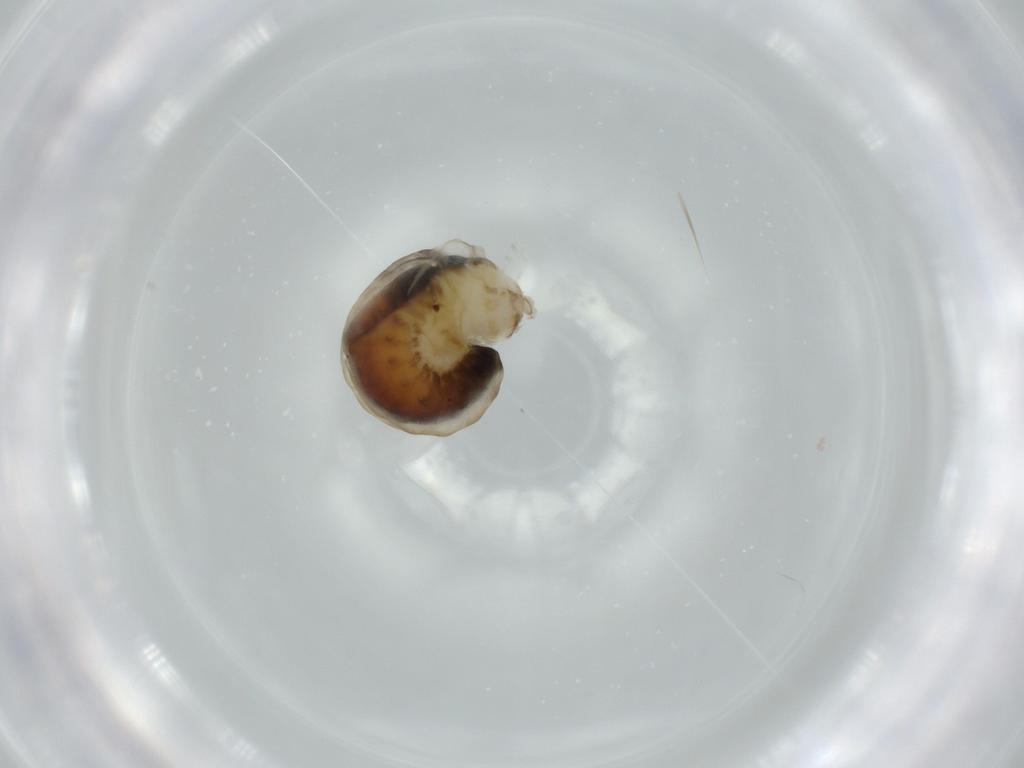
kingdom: Animalia
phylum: Arthropoda
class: Insecta
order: Hymenoptera
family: Dryinidae
